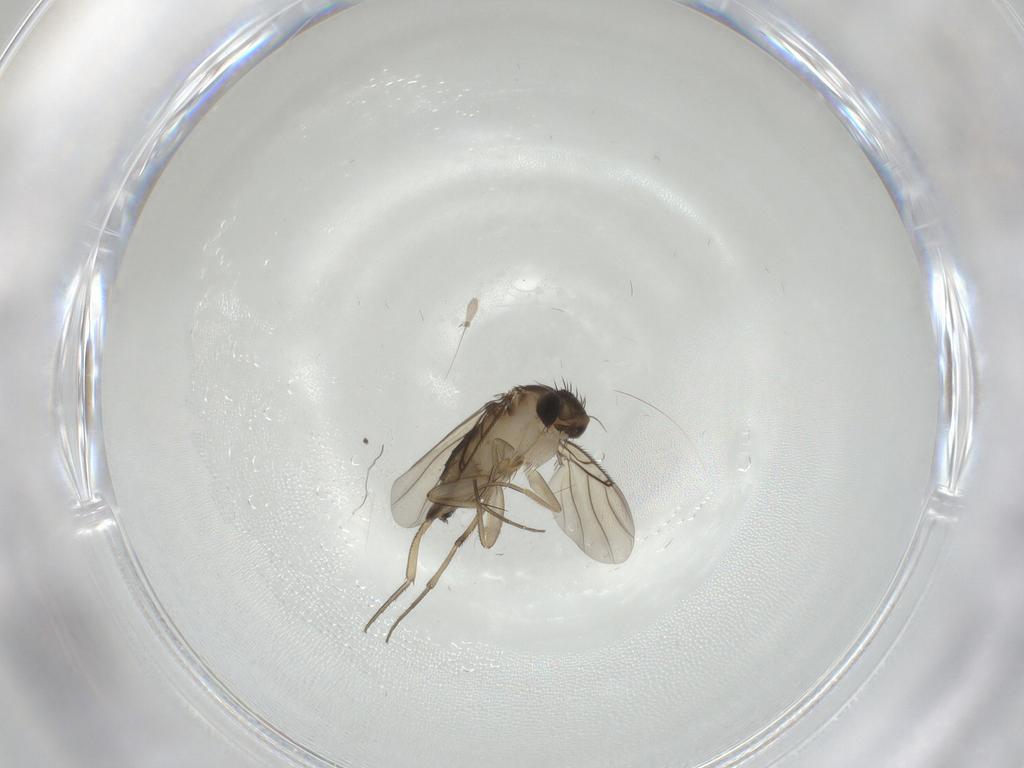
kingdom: Animalia
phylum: Arthropoda
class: Insecta
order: Diptera
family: Phoridae
